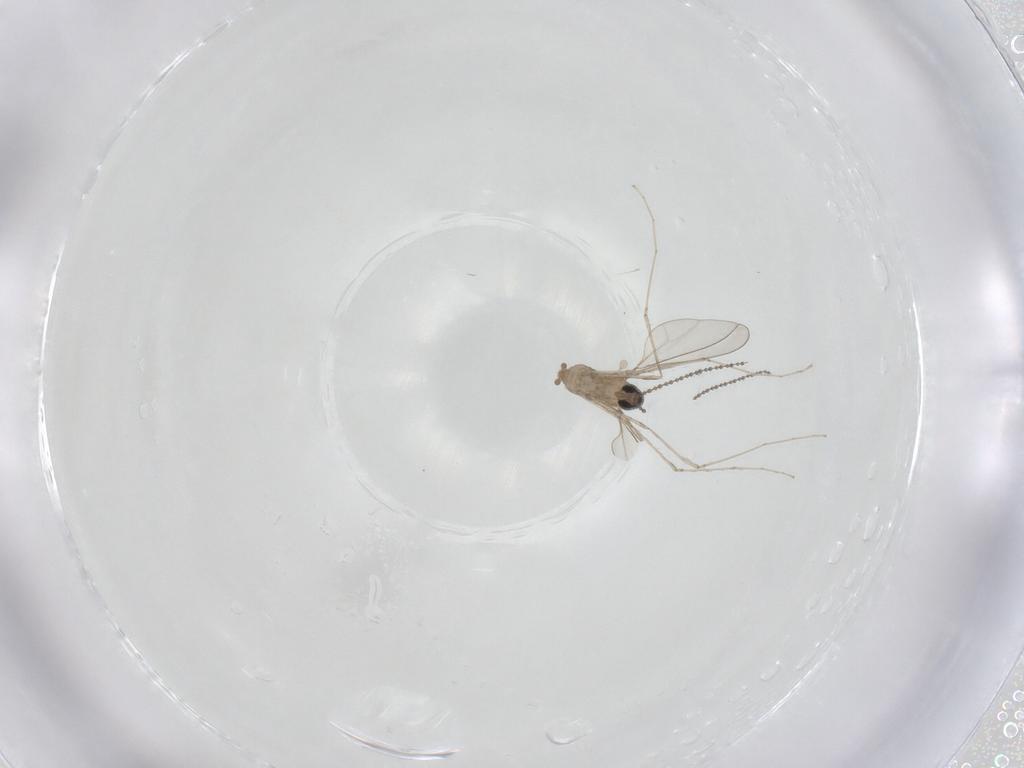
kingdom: Animalia
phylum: Arthropoda
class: Insecta
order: Diptera
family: Cecidomyiidae
